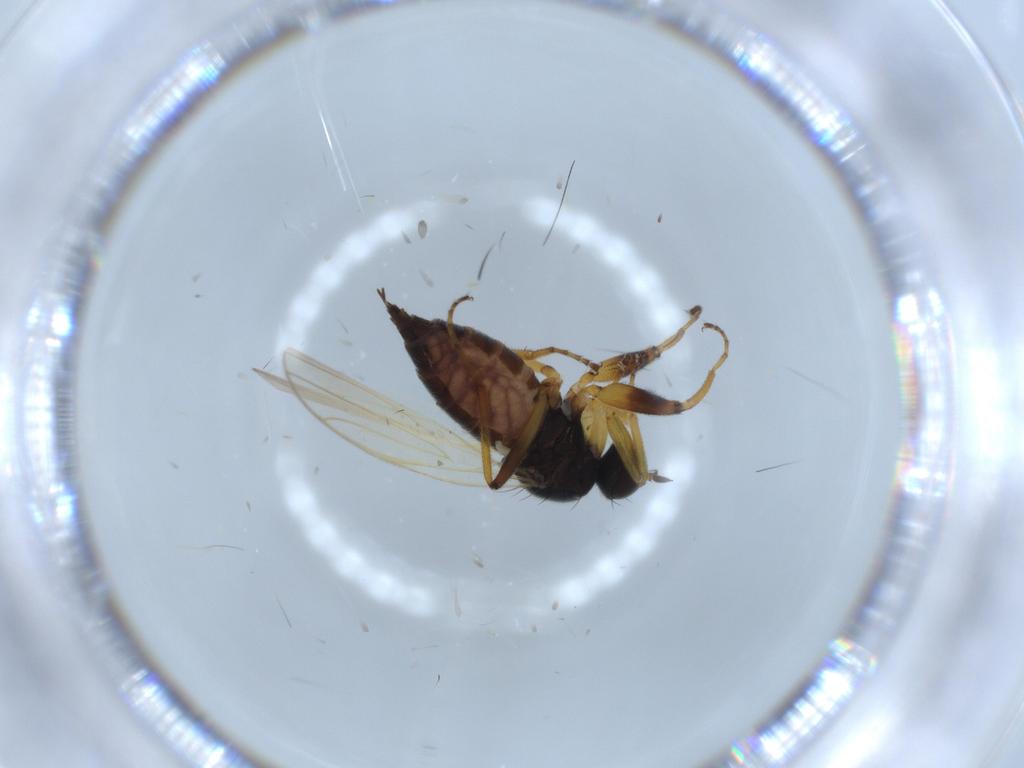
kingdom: Animalia
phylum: Arthropoda
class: Insecta
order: Diptera
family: Hybotidae
